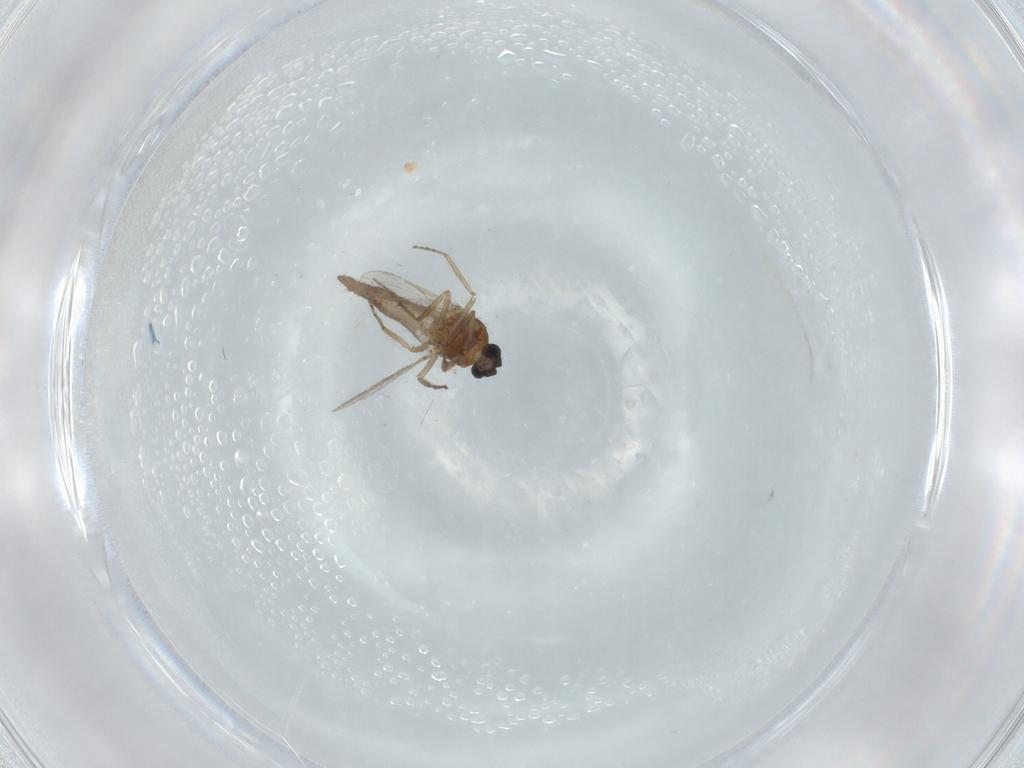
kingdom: Animalia
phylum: Arthropoda
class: Insecta
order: Diptera
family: Cecidomyiidae
